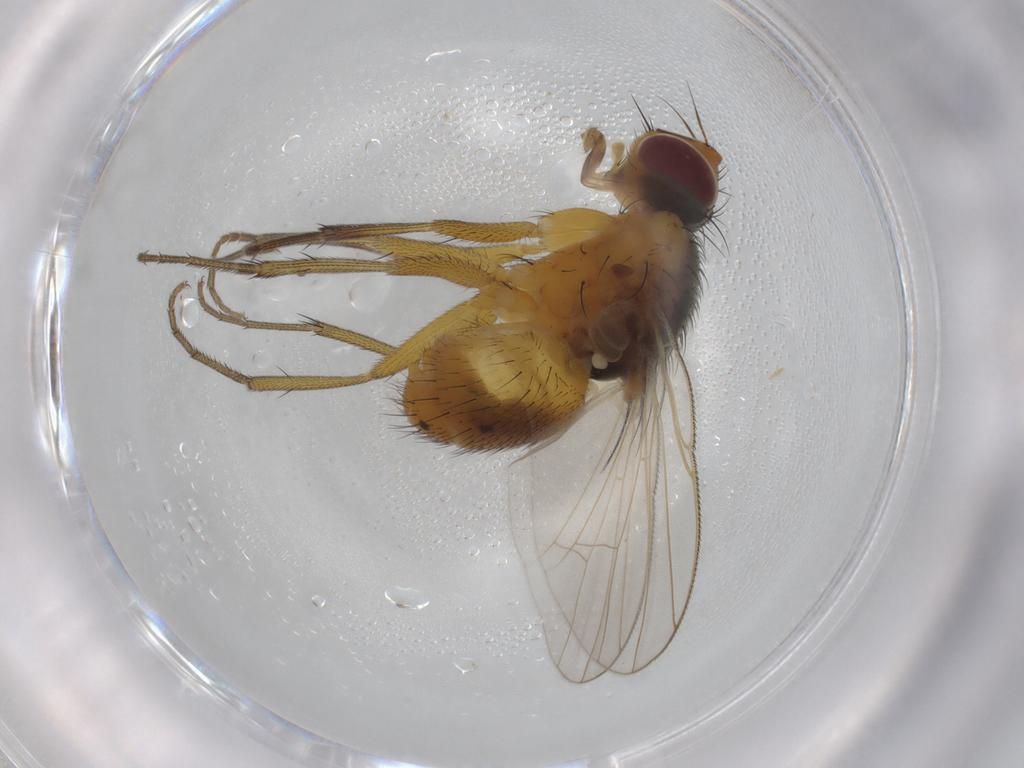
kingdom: Animalia
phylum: Arthropoda
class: Insecta
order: Diptera
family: Muscidae
